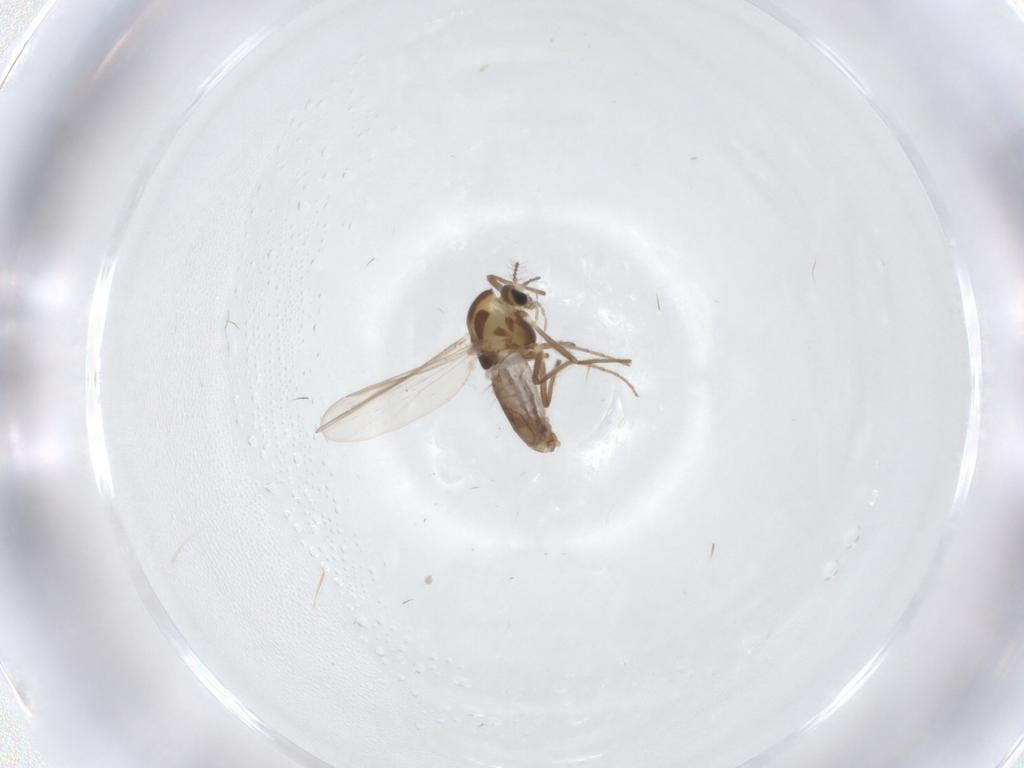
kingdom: Animalia
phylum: Arthropoda
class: Insecta
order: Diptera
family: Chironomidae
